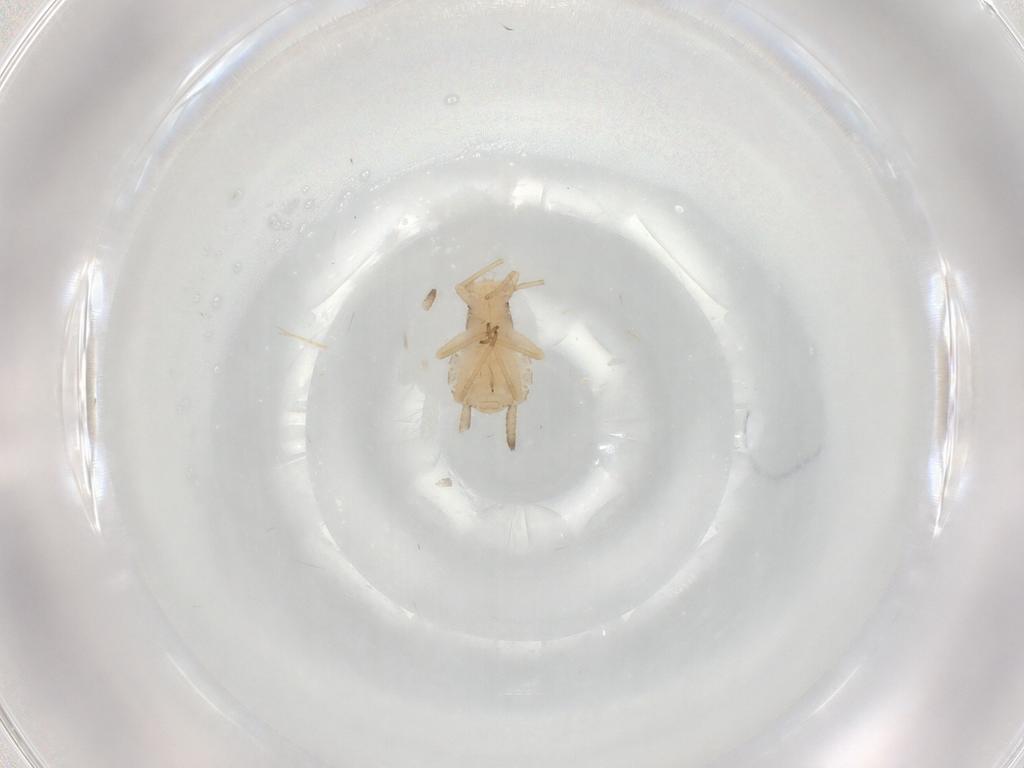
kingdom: Animalia
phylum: Arthropoda
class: Insecta
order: Hemiptera
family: Aphididae
